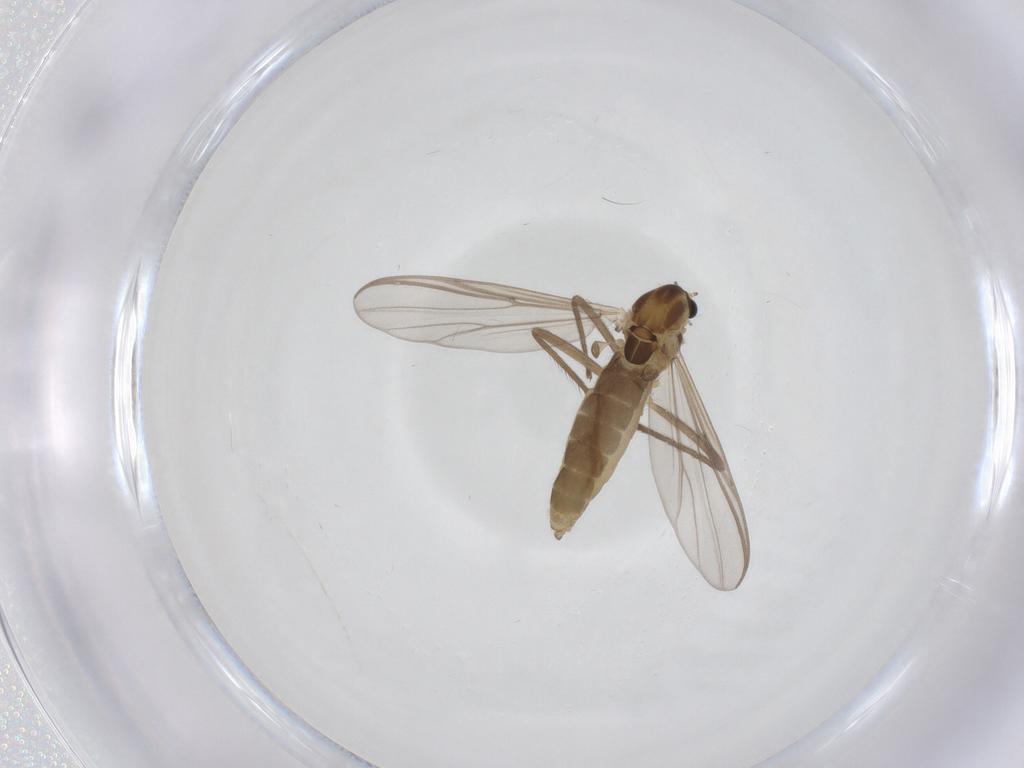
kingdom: Animalia
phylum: Arthropoda
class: Insecta
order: Diptera
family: Chironomidae
